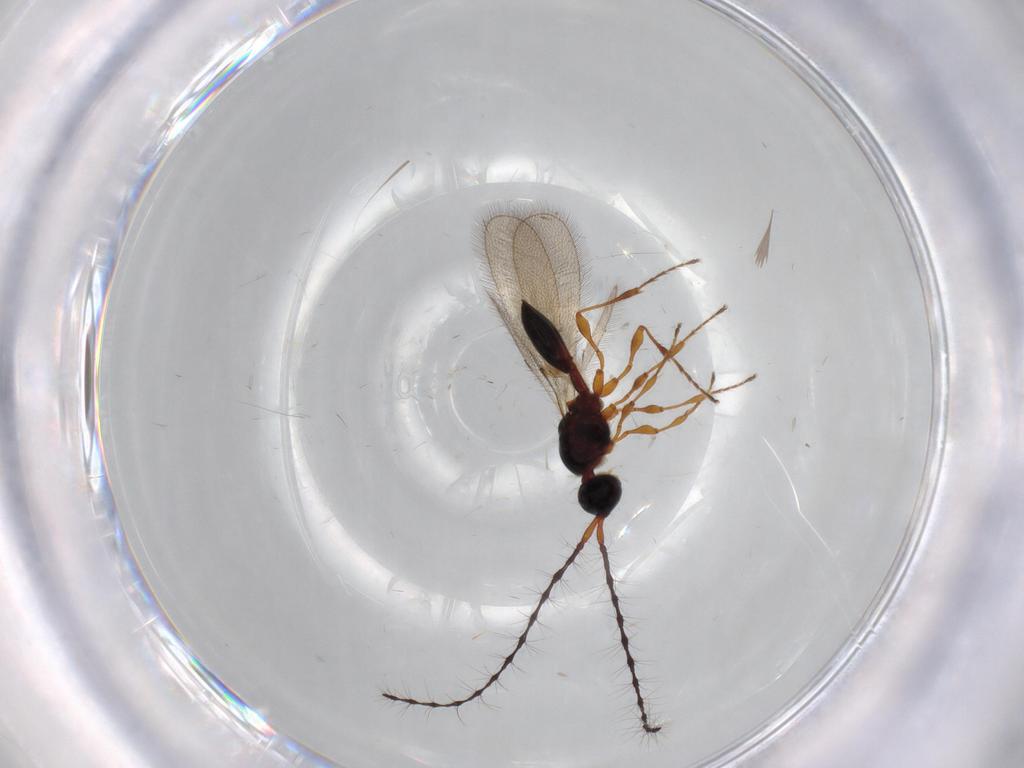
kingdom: Animalia
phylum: Arthropoda
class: Insecta
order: Hymenoptera
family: Diapriidae
